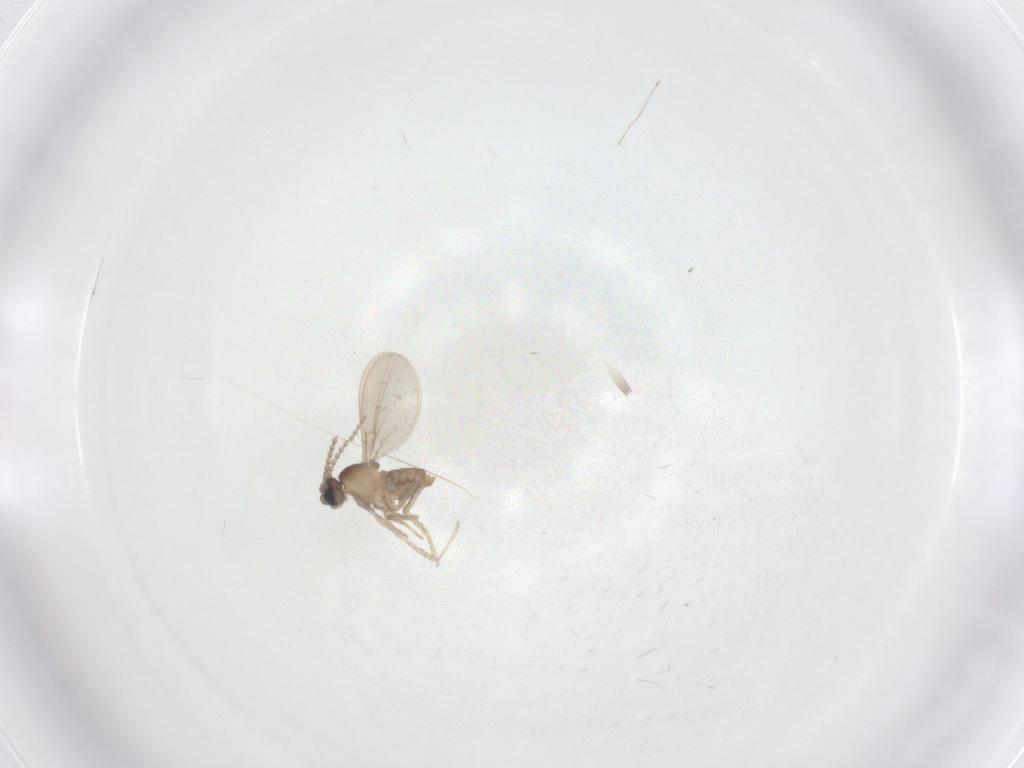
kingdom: Animalia
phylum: Arthropoda
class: Insecta
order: Diptera
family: Cecidomyiidae
